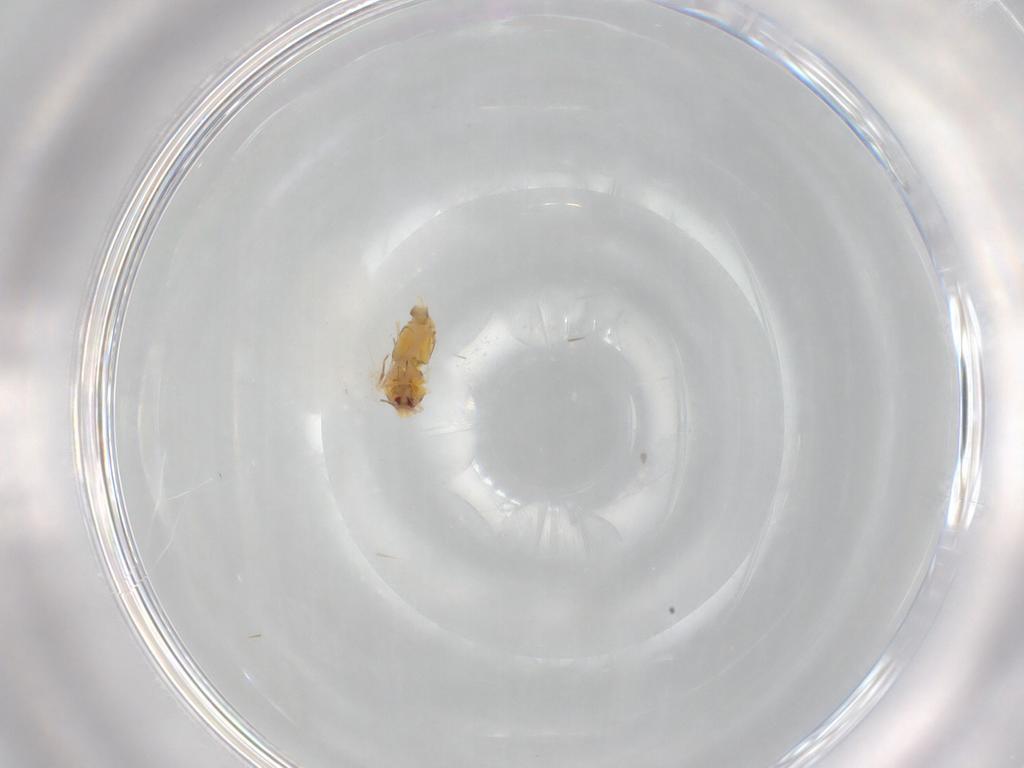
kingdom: Animalia
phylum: Arthropoda
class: Insecta
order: Hemiptera
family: Aleyrodidae
